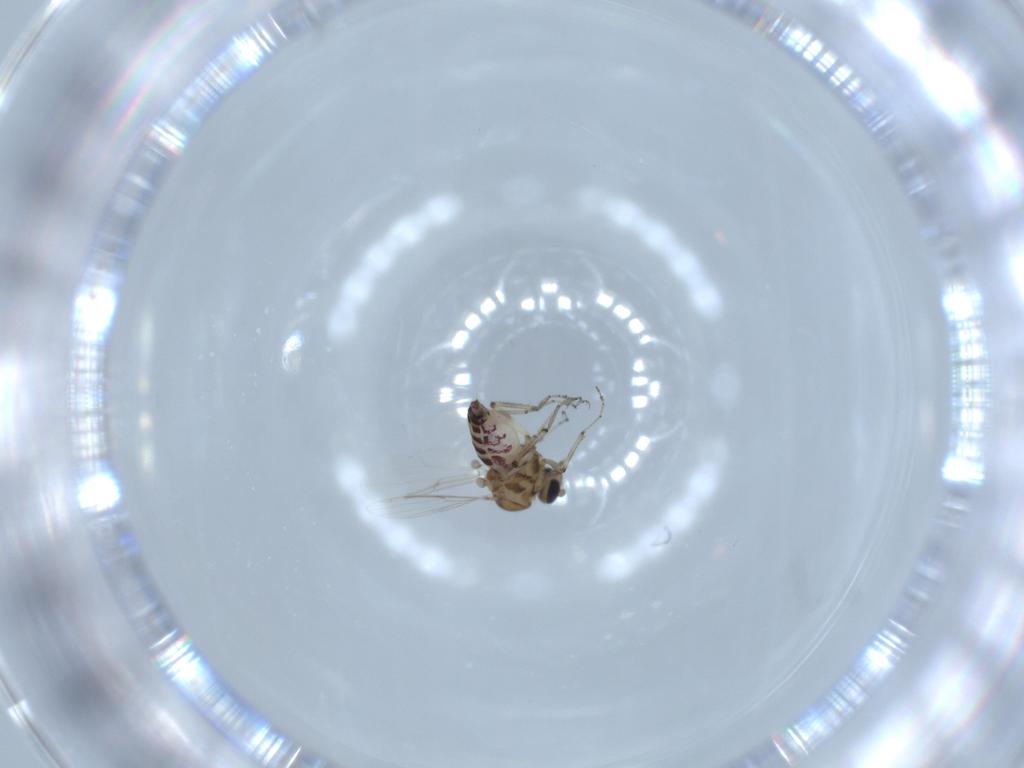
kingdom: Animalia
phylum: Arthropoda
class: Insecta
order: Diptera
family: Ceratopogonidae
